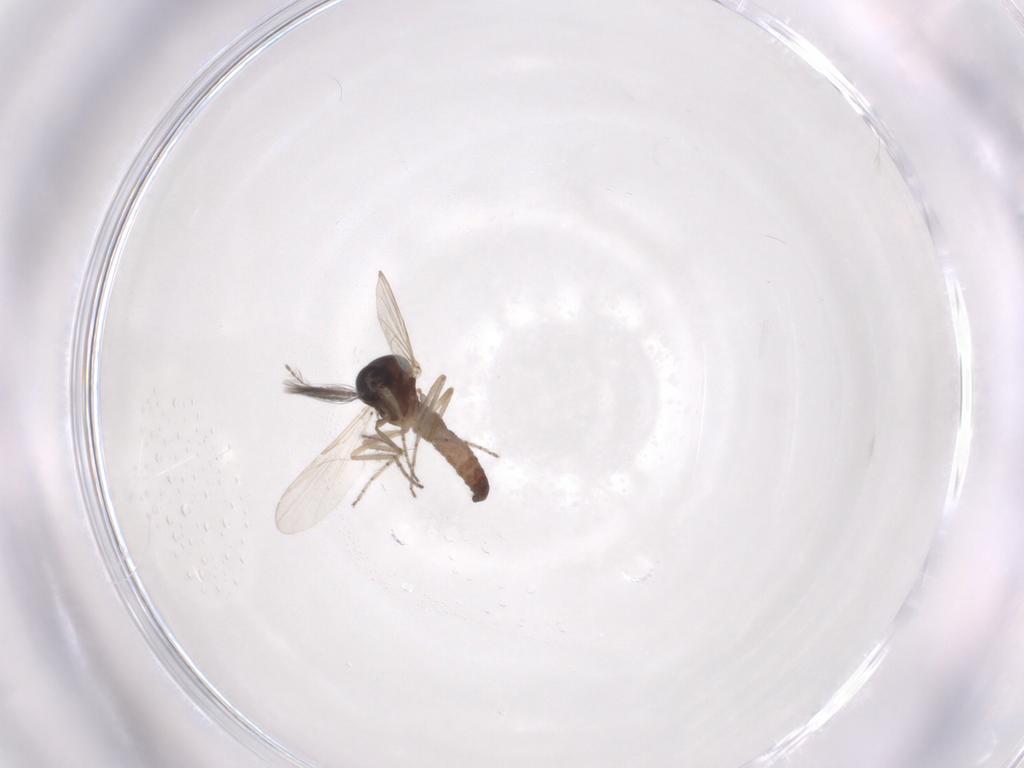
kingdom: Animalia
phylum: Arthropoda
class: Insecta
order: Diptera
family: Ceratopogonidae
